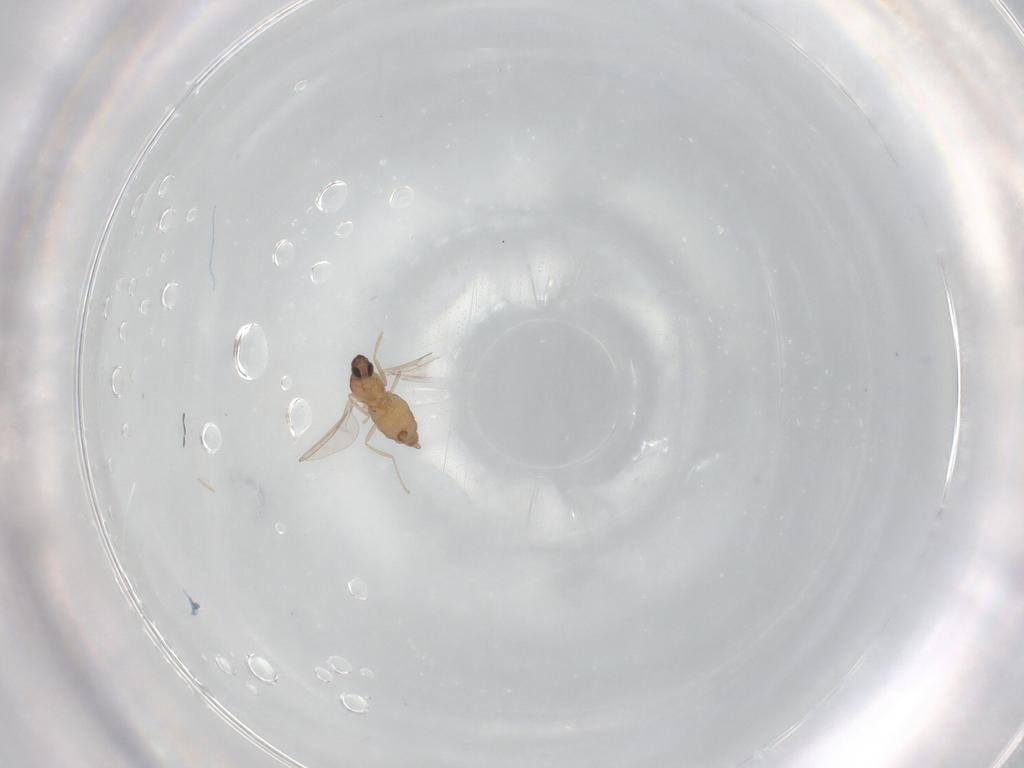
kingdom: Animalia
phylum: Arthropoda
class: Insecta
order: Diptera
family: Cecidomyiidae
